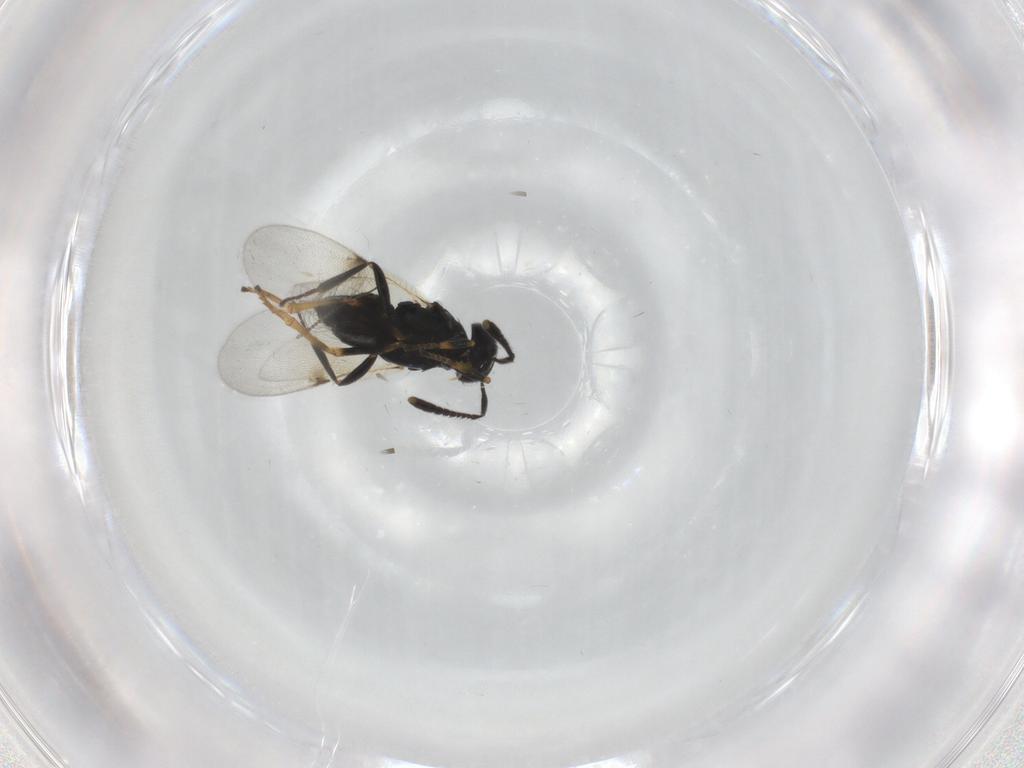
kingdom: Animalia
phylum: Arthropoda
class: Insecta
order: Hymenoptera
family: Encyrtidae
